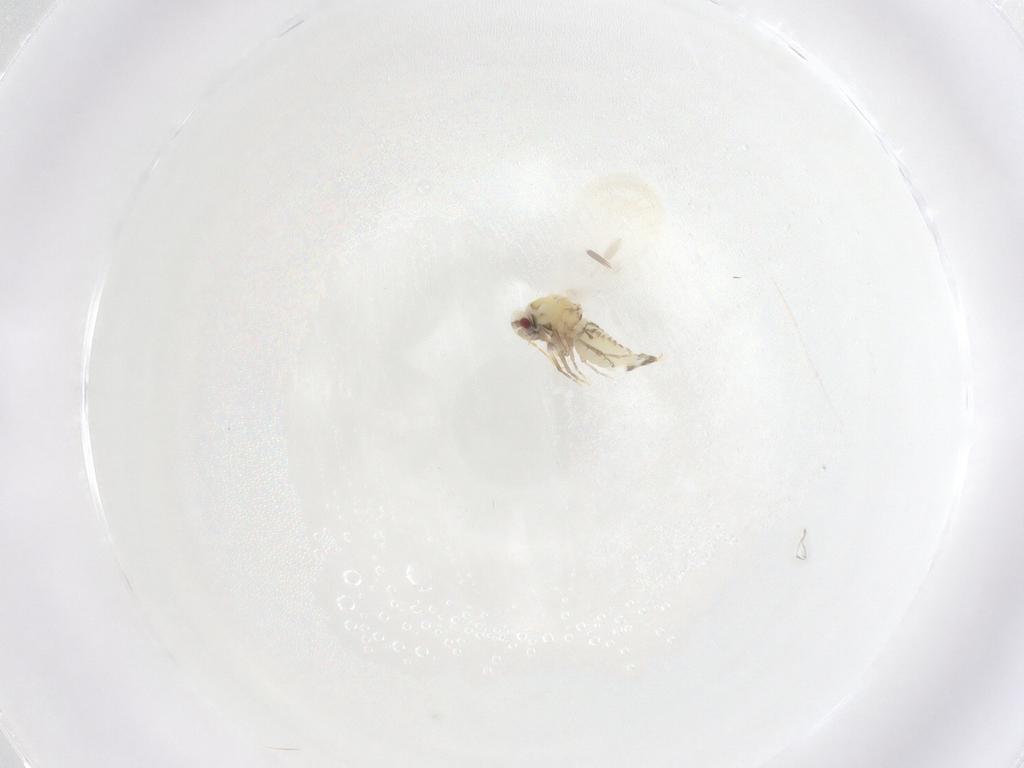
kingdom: Animalia
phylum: Arthropoda
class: Insecta
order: Hemiptera
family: Aleyrodidae
